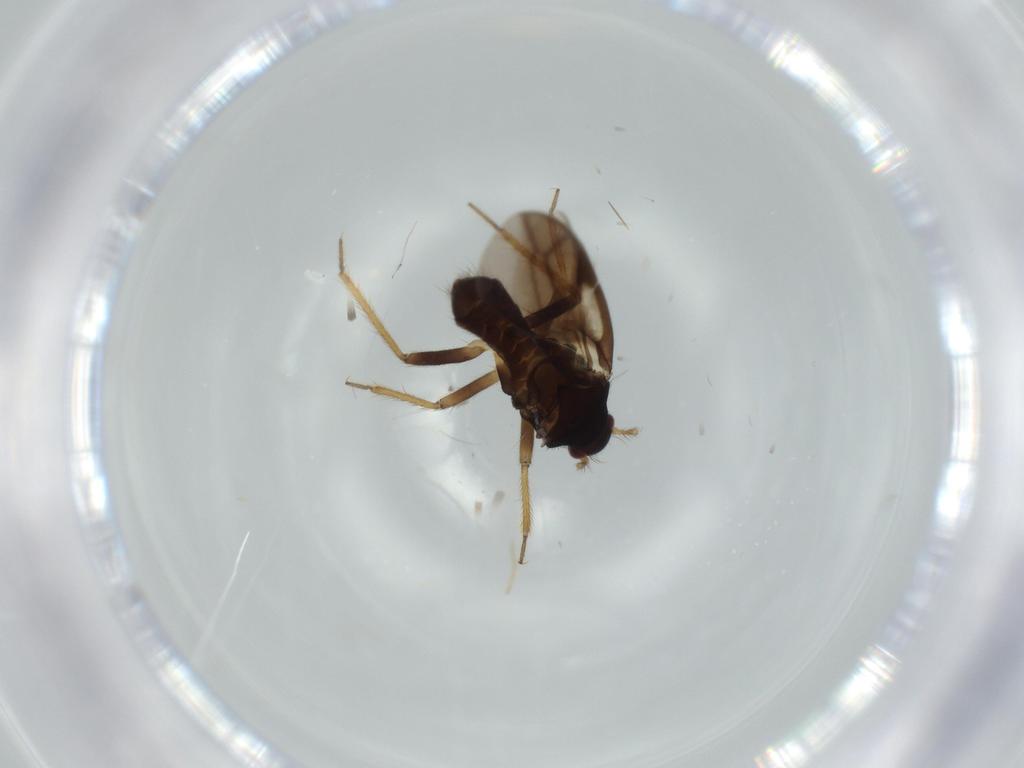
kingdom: Animalia
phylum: Arthropoda
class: Insecta
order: Hemiptera
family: Ceratocombidae
